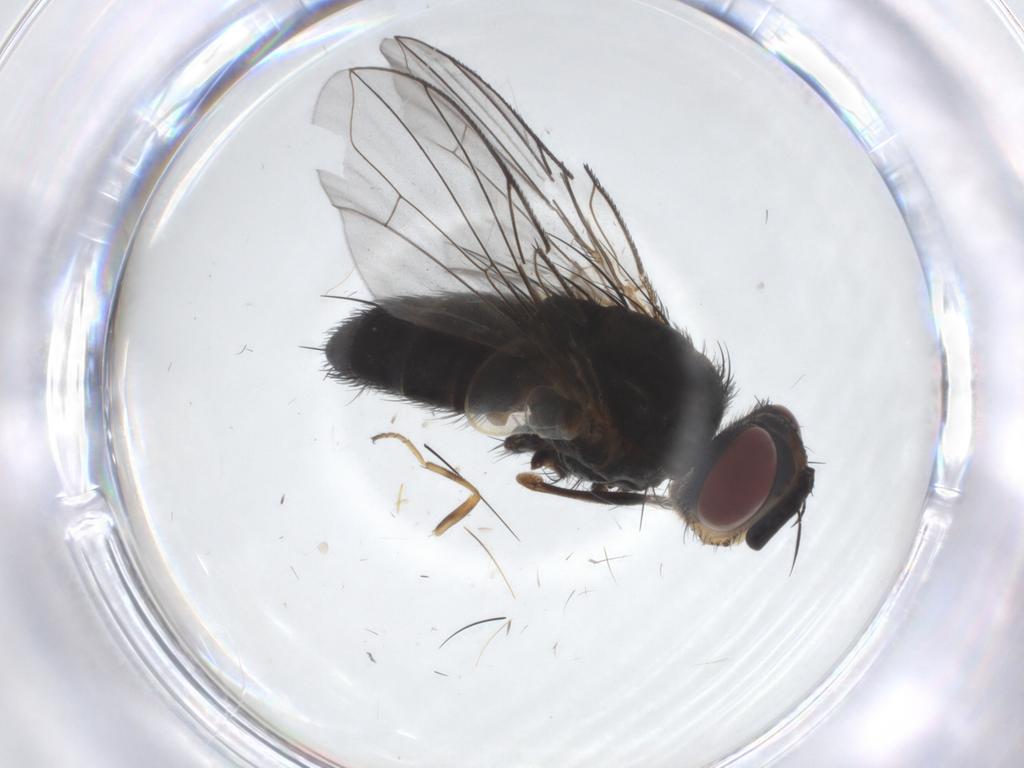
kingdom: Animalia
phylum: Arthropoda
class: Insecta
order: Diptera
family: Tachinidae
